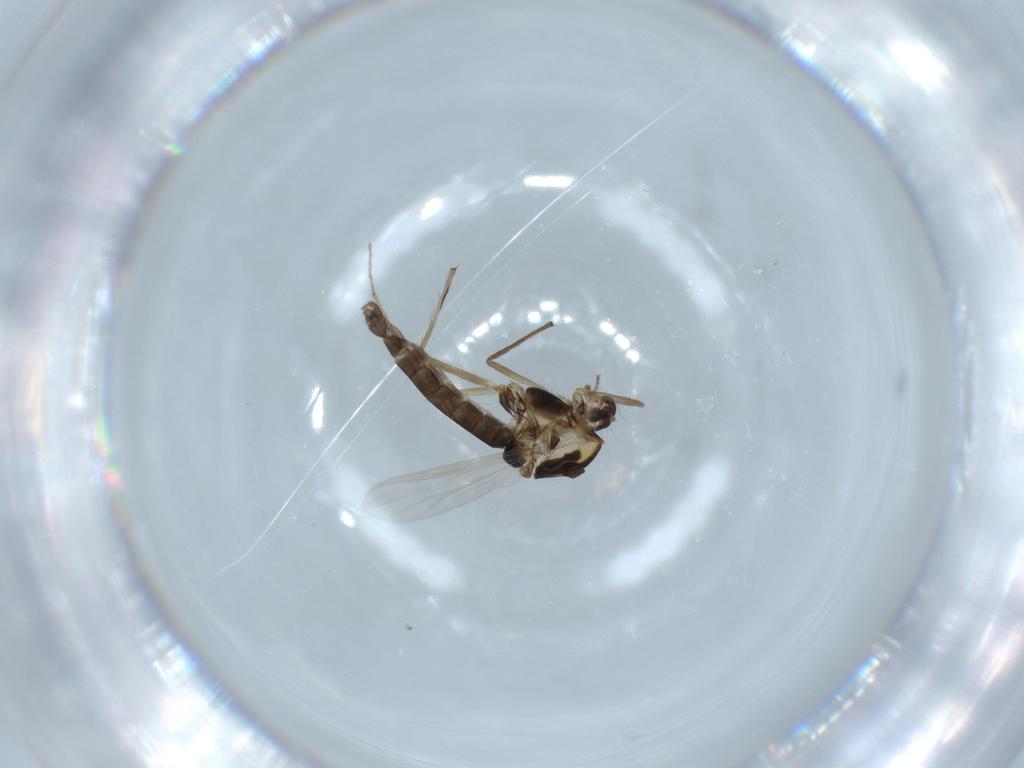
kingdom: Animalia
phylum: Arthropoda
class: Insecta
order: Diptera
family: Chironomidae
